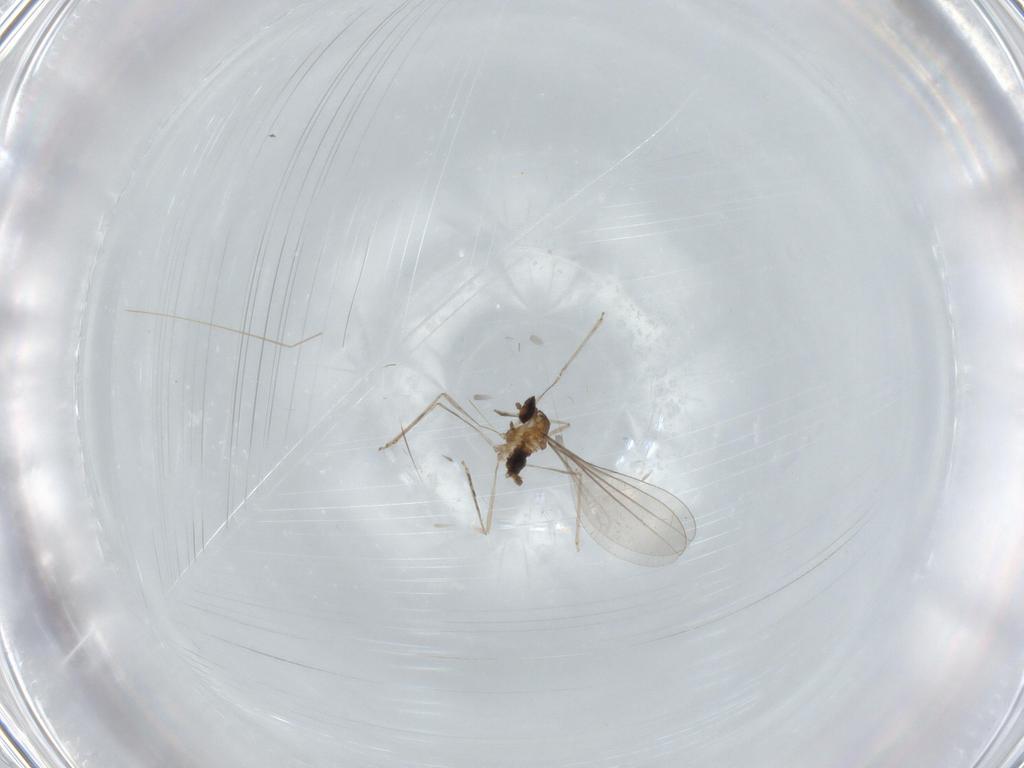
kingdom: Animalia
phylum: Arthropoda
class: Insecta
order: Diptera
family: Cecidomyiidae
